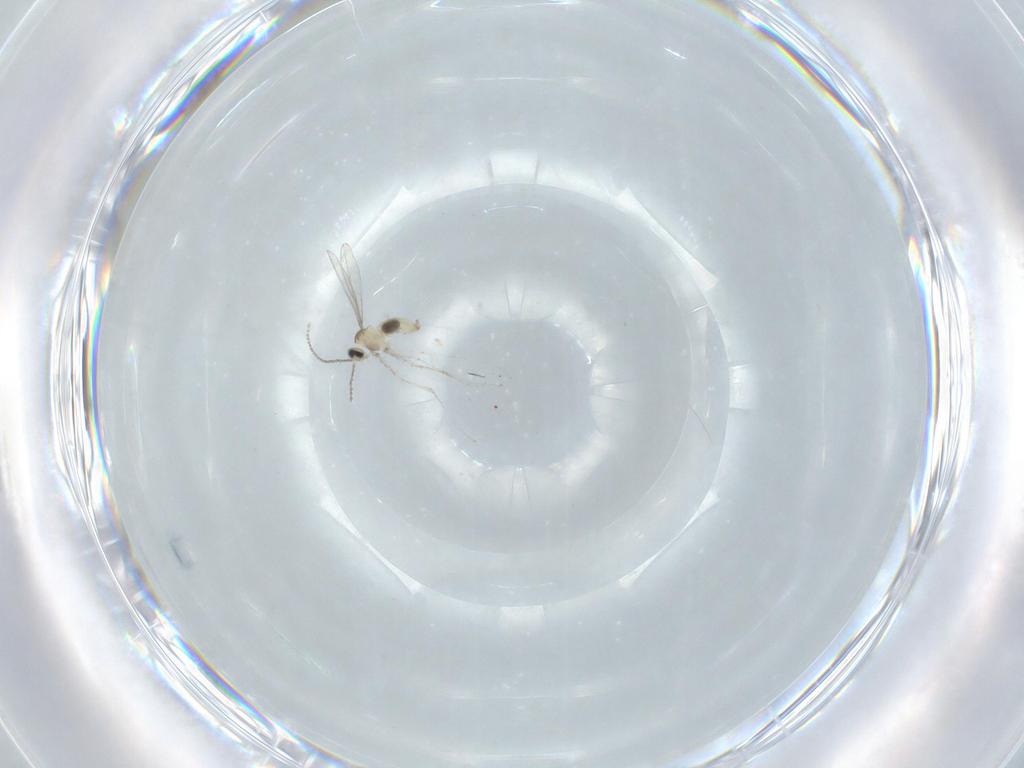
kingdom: Animalia
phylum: Arthropoda
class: Insecta
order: Diptera
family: Cecidomyiidae
